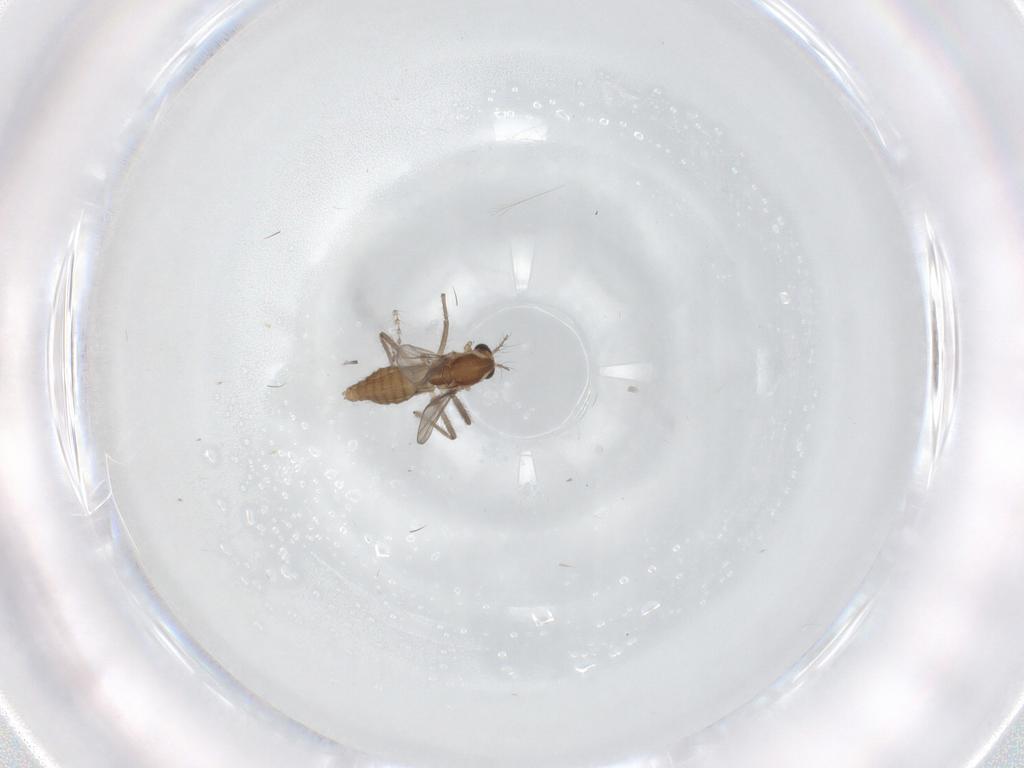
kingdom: Animalia
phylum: Arthropoda
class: Insecta
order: Diptera
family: Chironomidae
